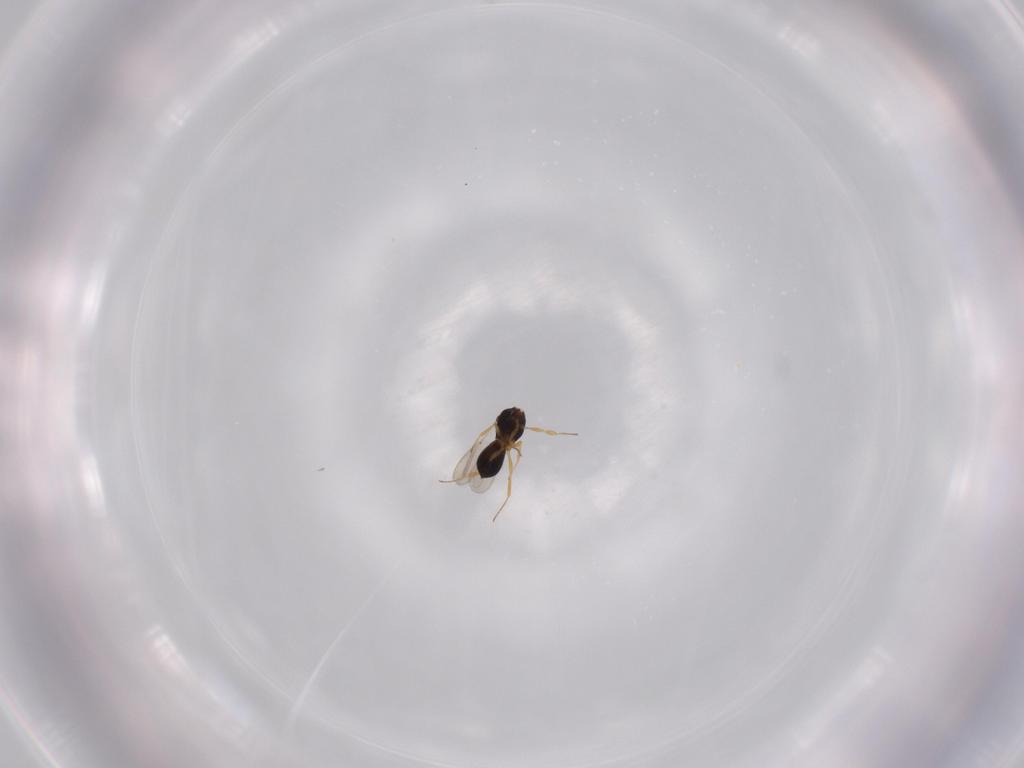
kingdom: Animalia
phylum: Arthropoda
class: Insecta
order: Hymenoptera
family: Scelionidae
